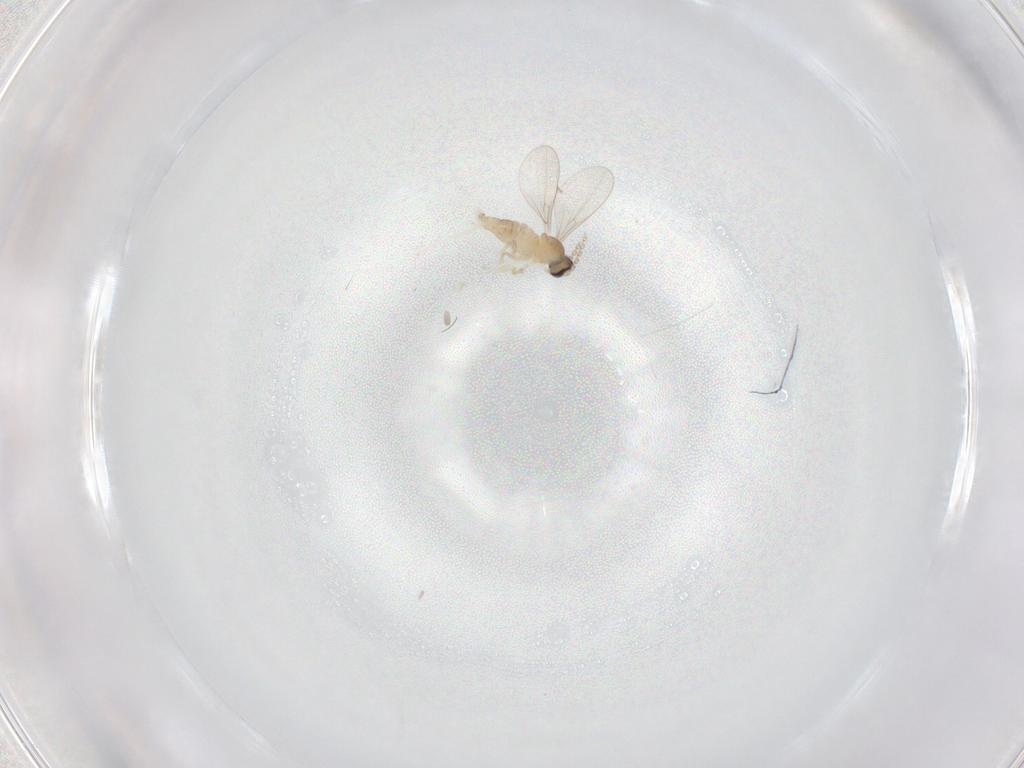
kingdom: Animalia
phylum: Arthropoda
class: Insecta
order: Diptera
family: Cecidomyiidae
